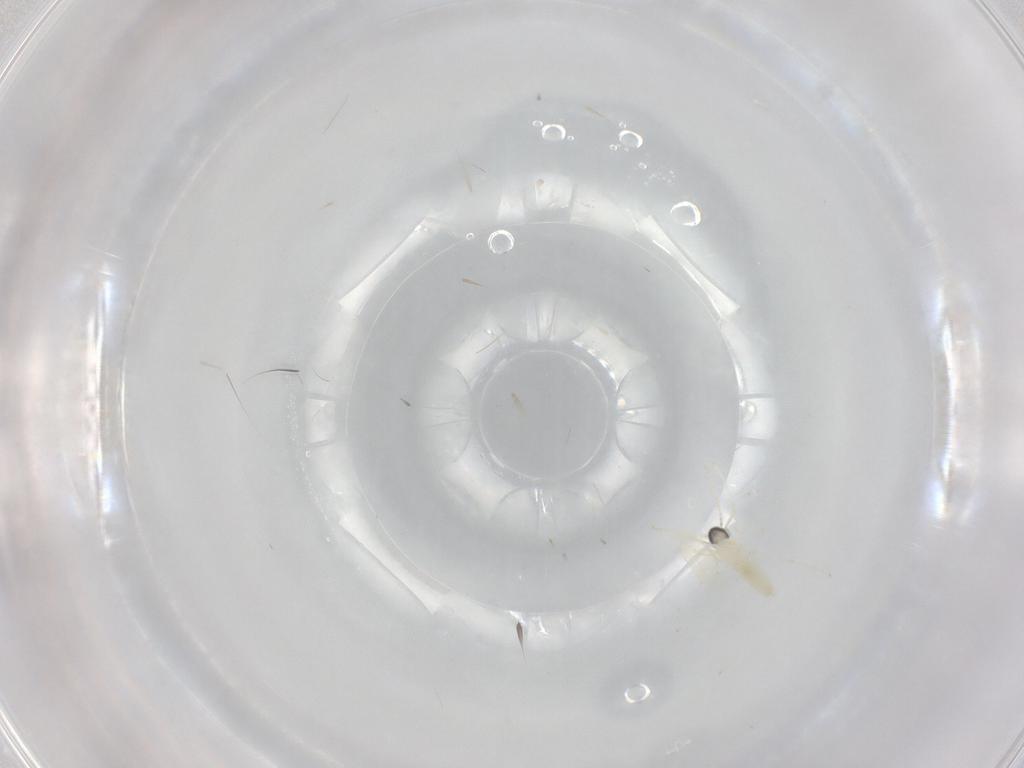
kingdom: Animalia
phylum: Arthropoda
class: Insecta
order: Diptera
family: Cecidomyiidae
